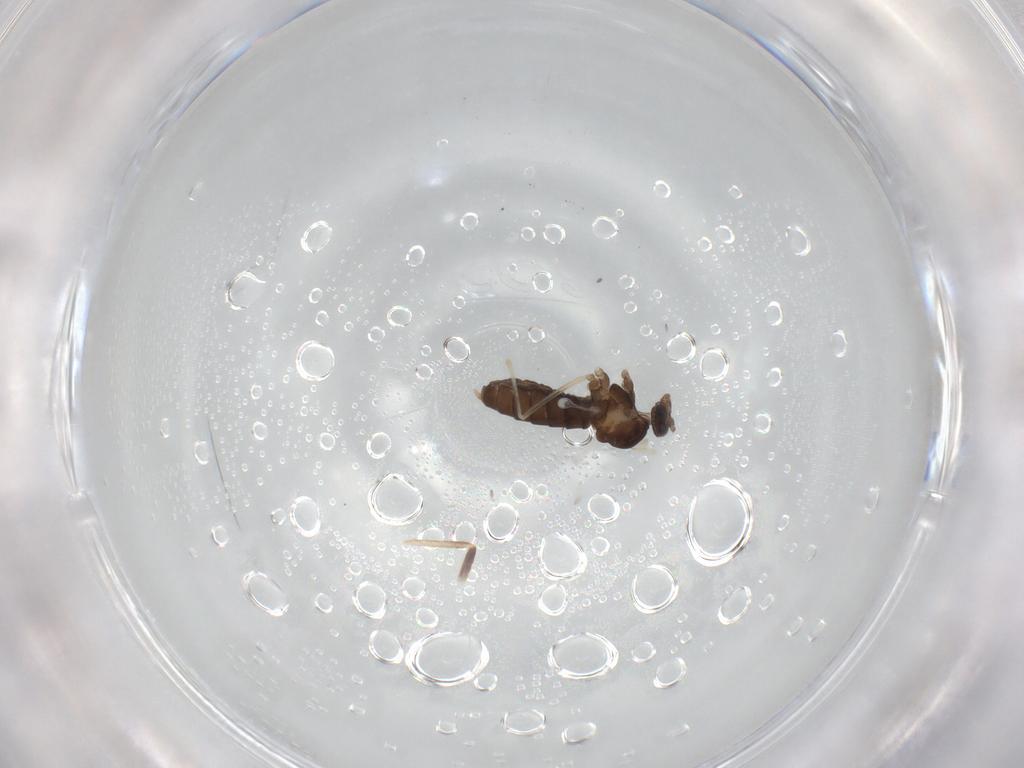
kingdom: Animalia
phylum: Arthropoda
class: Insecta
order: Diptera
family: Cecidomyiidae
